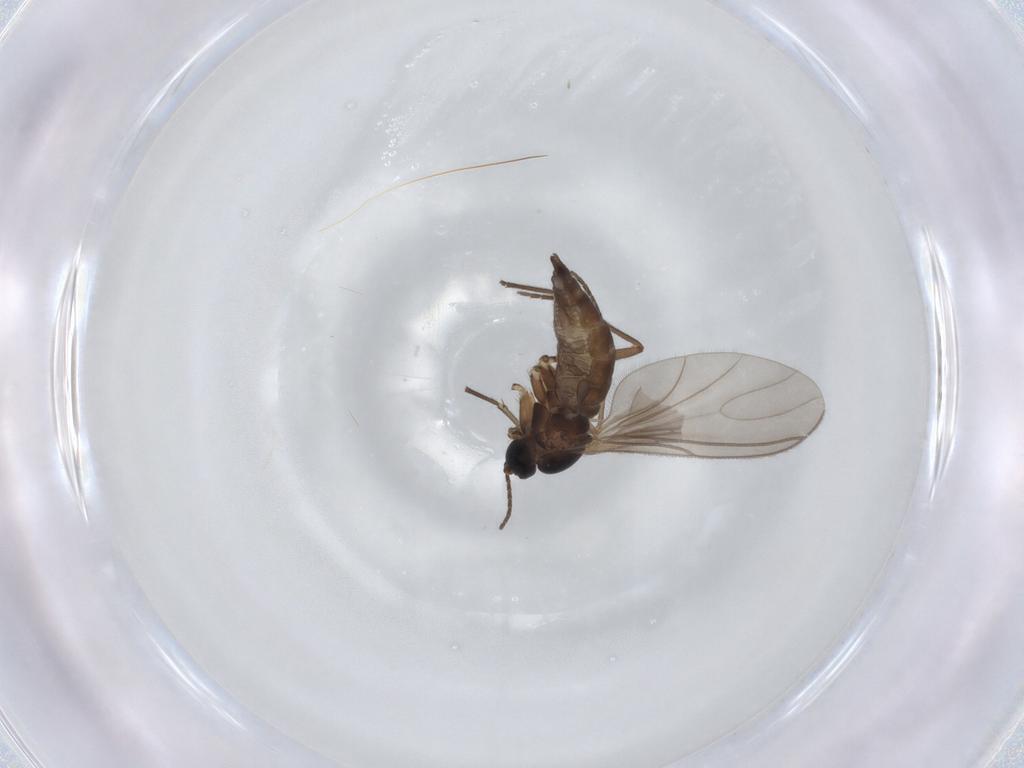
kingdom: Animalia
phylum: Arthropoda
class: Insecta
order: Diptera
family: Sciaridae
